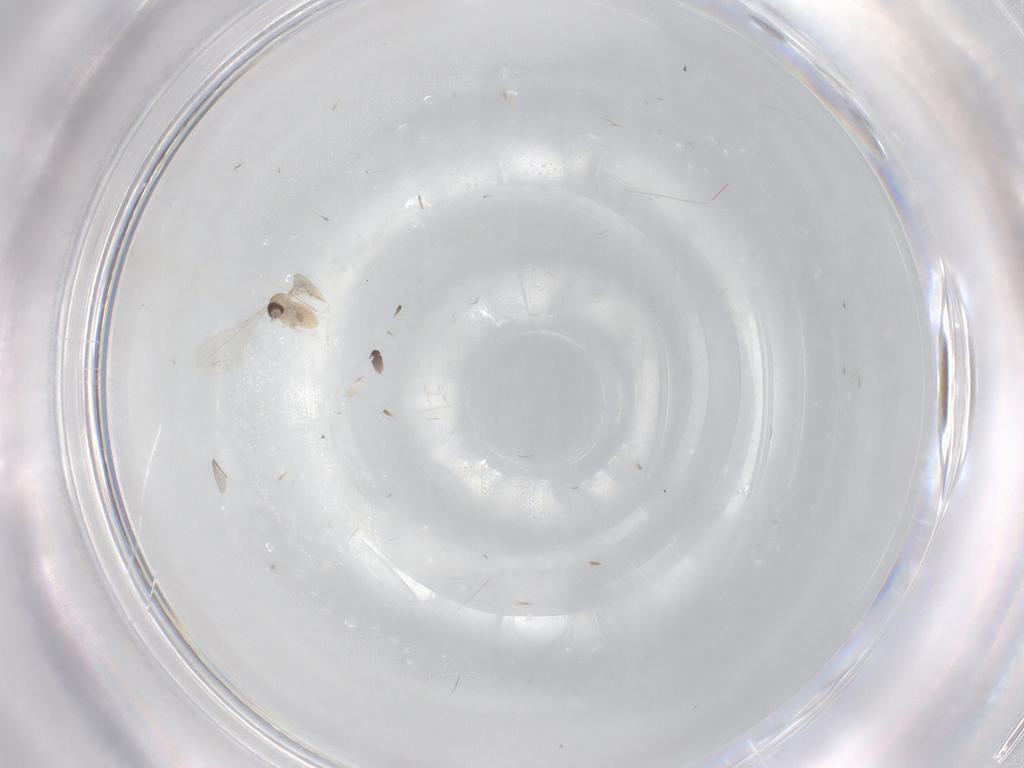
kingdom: Animalia
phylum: Arthropoda
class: Insecta
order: Diptera
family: Cecidomyiidae
